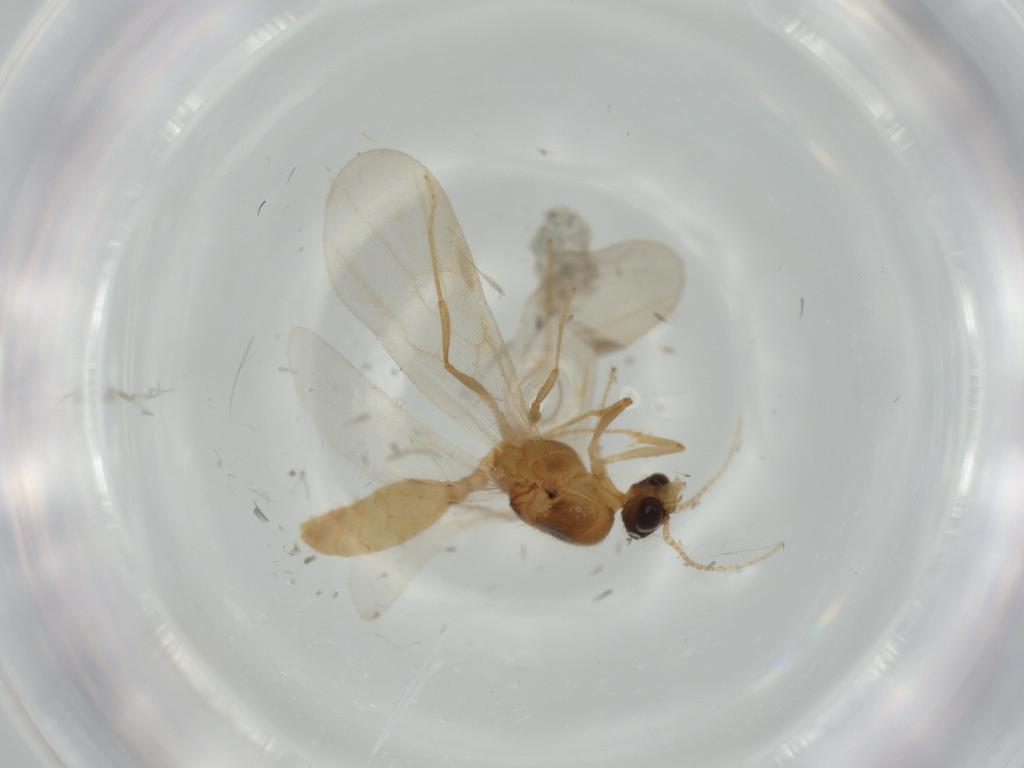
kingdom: Animalia
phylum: Arthropoda
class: Insecta
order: Hymenoptera
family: Formicidae
